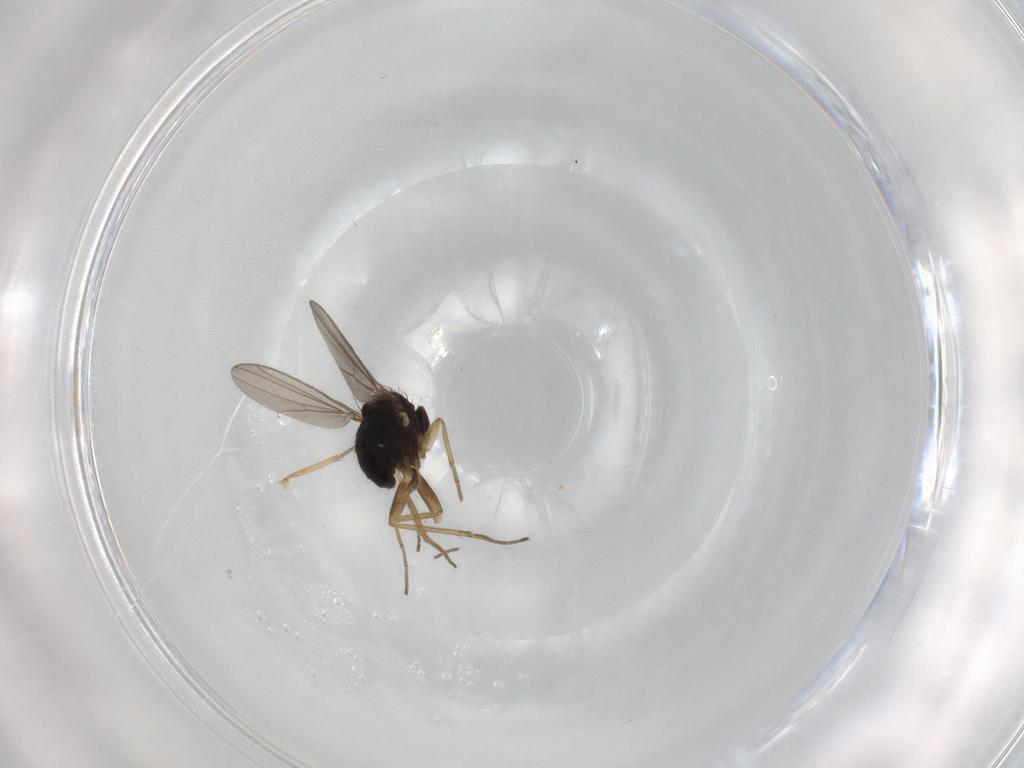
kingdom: Animalia
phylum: Arthropoda
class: Insecta
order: Diptera
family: Dolichopodidae
